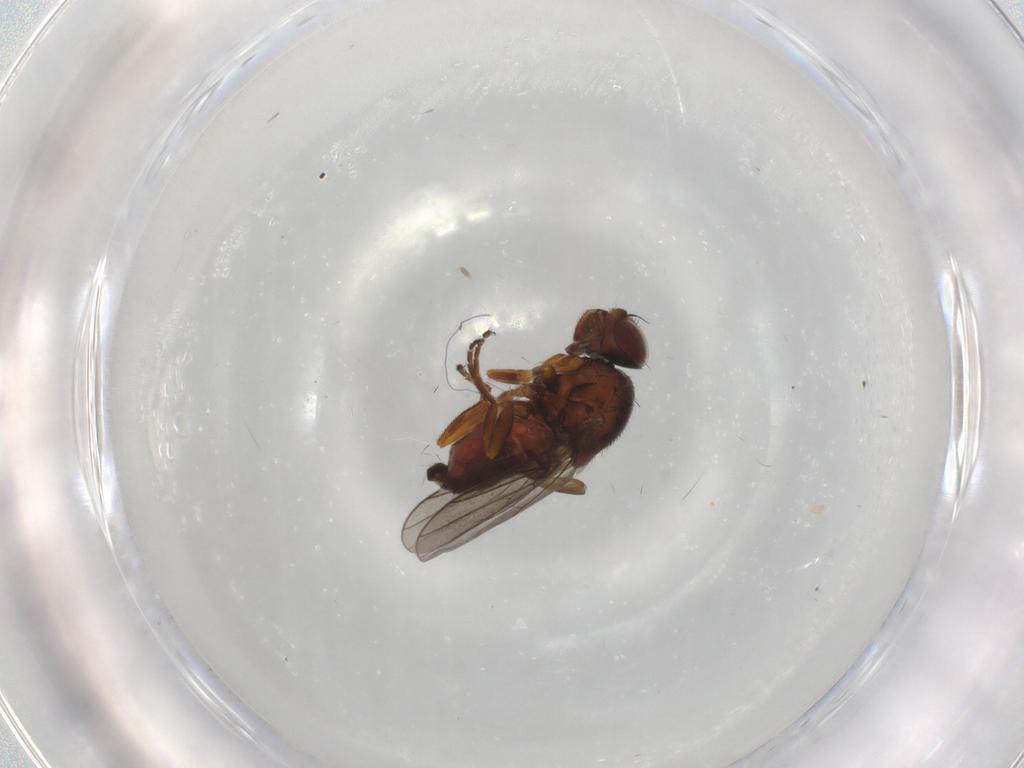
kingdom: Animalia
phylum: Arthropoda
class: Insecta
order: Diptera
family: Chloropidae
